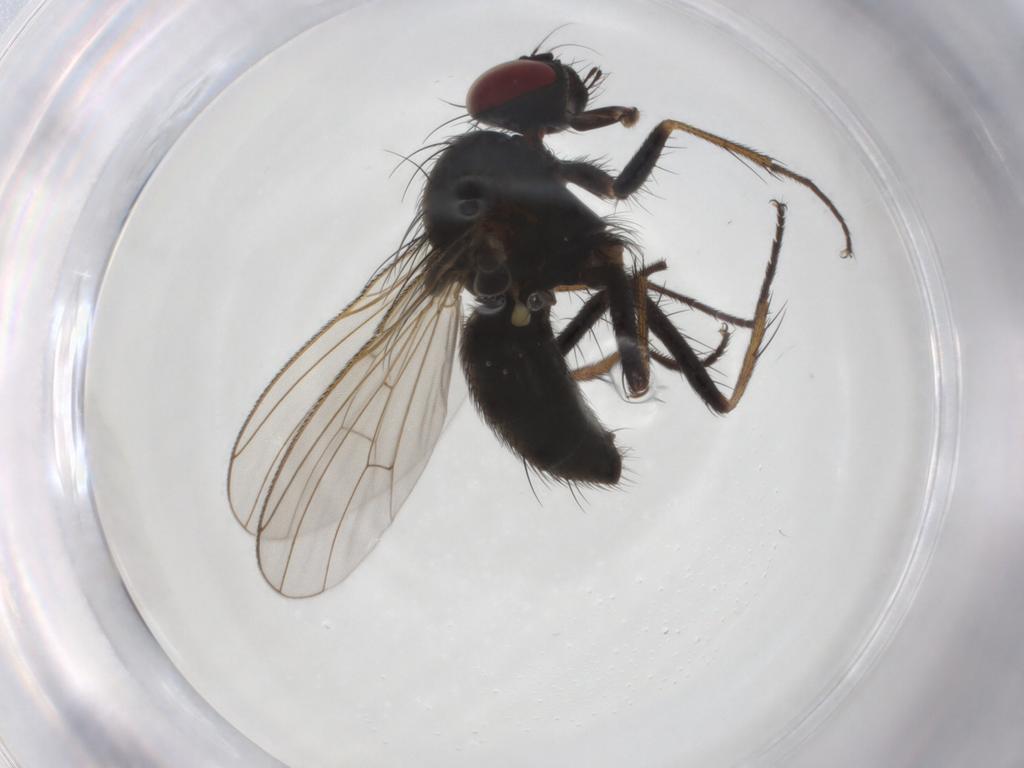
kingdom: Animalia
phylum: Arthropoda
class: Insecta
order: Diptera
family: Muscidae
